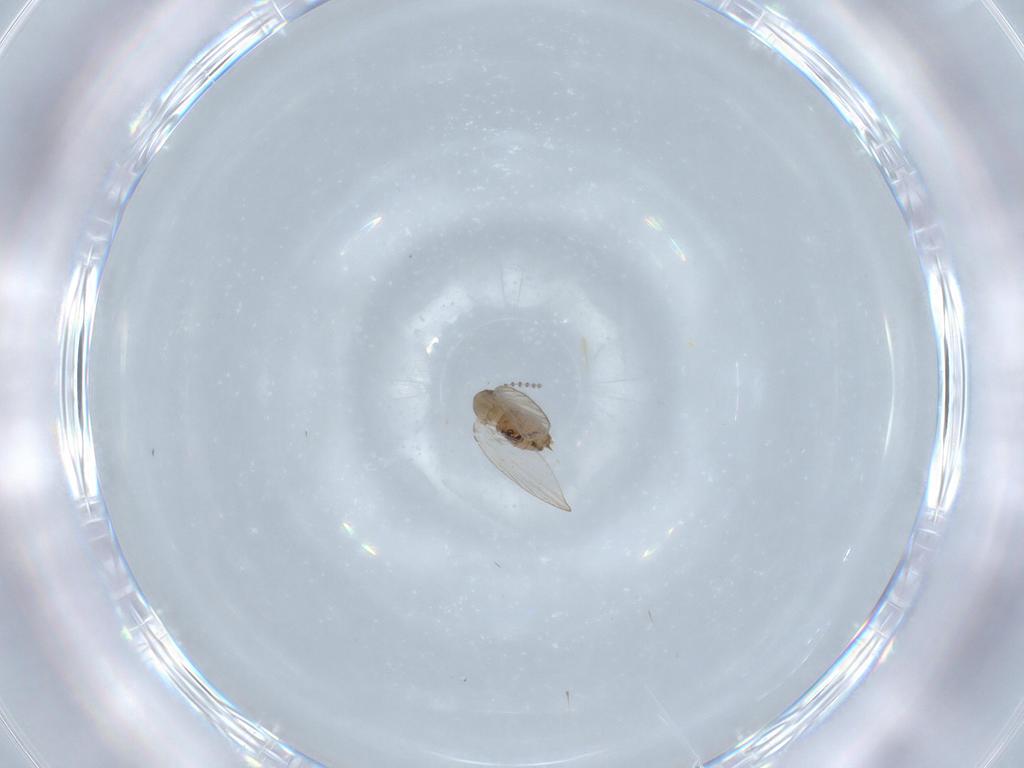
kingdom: Animalia
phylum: Arthropoda
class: Insecta
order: Diptera
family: Psychodidae
